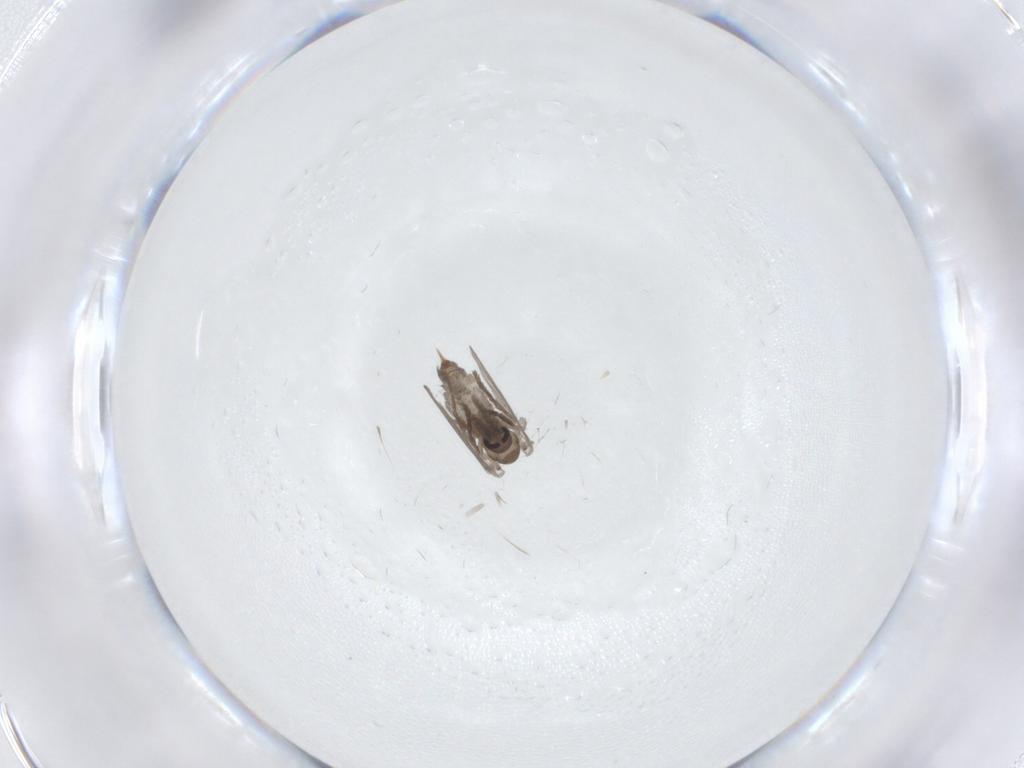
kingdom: Animalia
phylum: Arthropoda
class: Insecta
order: Diptera
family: Psychodidae
